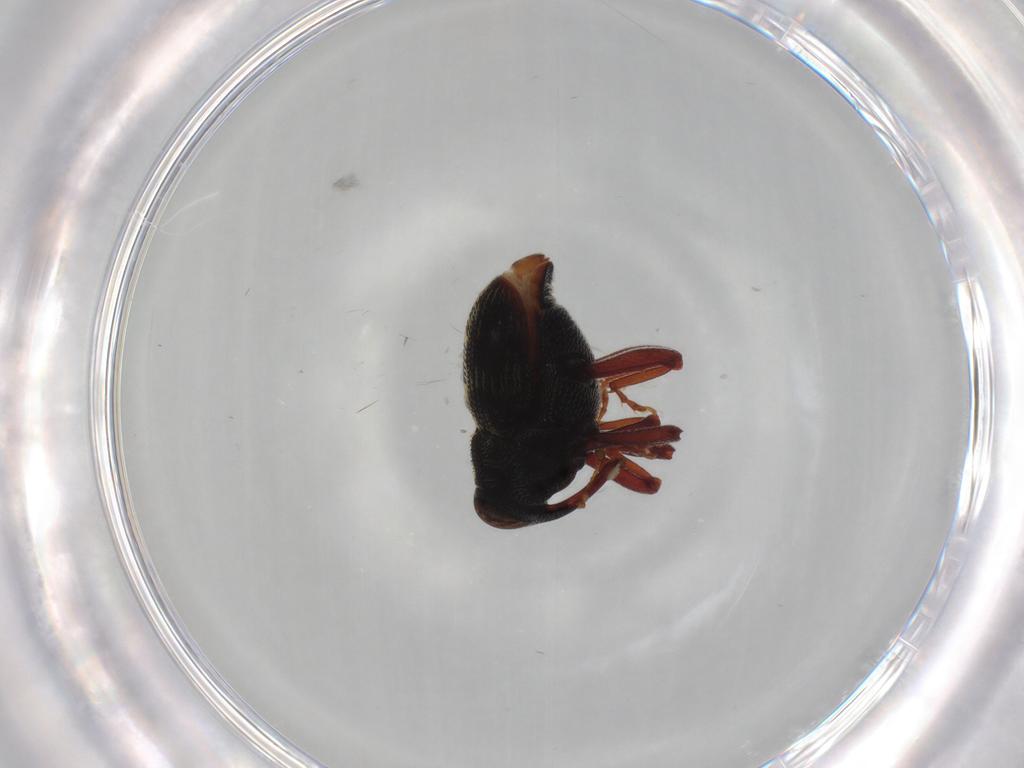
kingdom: Animalia
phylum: Arthropoda
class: Insecta
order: Coleoptera
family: Curculionidae
